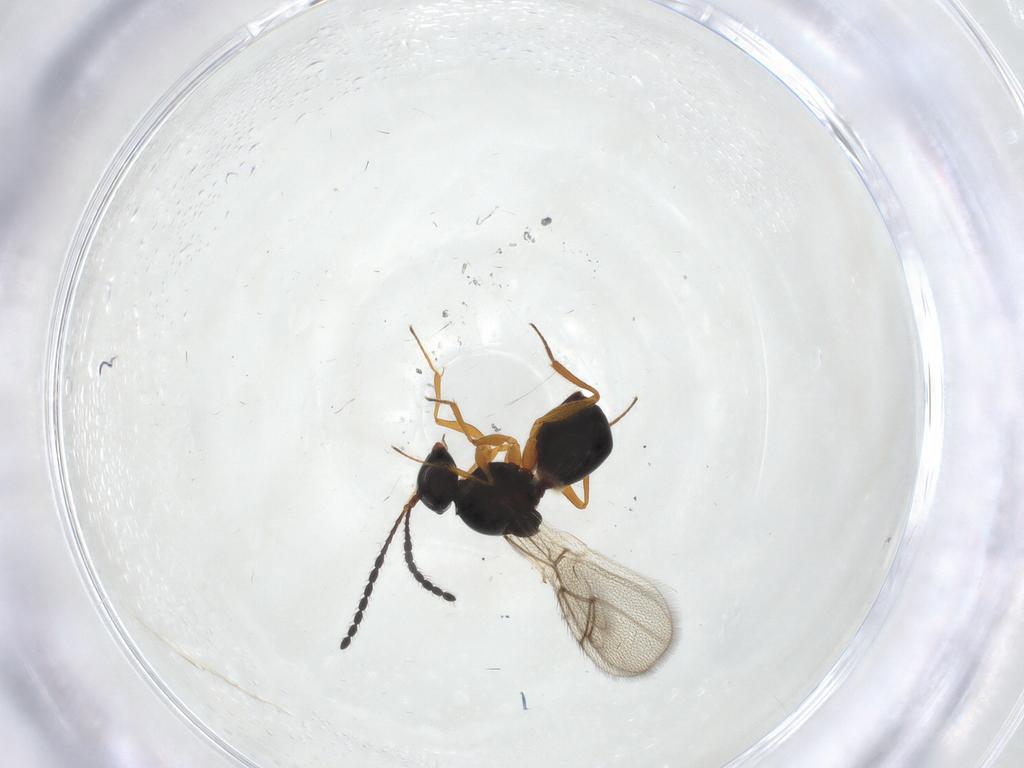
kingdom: Animalia
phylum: Arthropoda
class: Insecta
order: Hymenoptera
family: Figitidae
